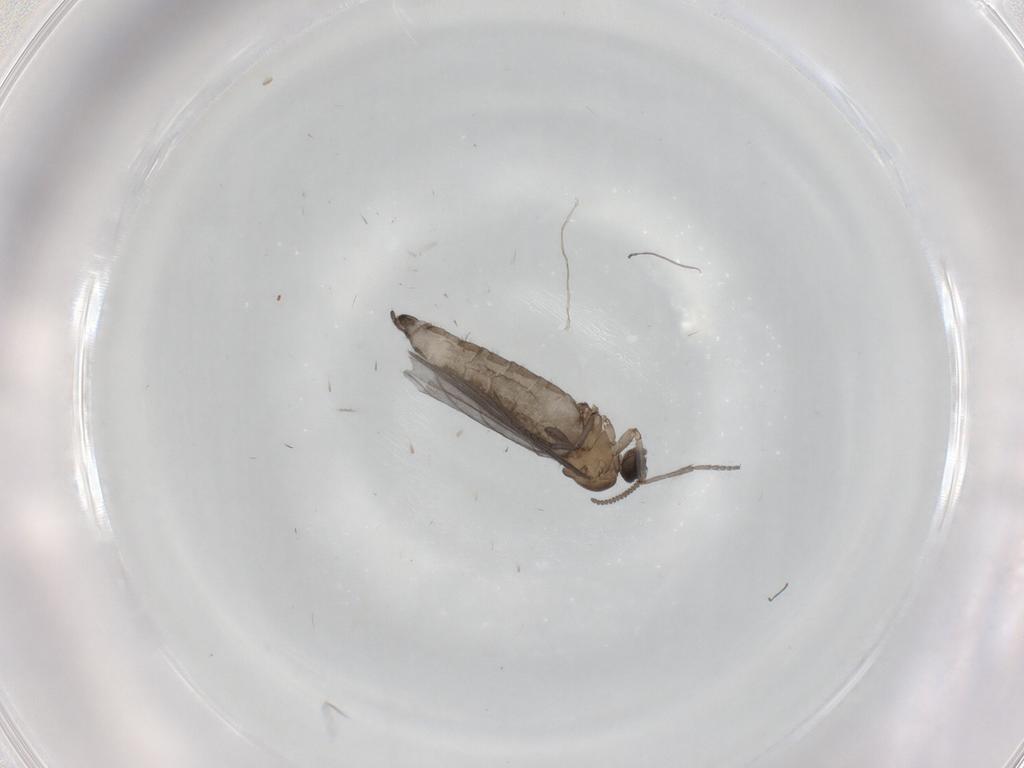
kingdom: Animalia
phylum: Arthropoda
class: Insecta
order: Diptera
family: Sciaridae
